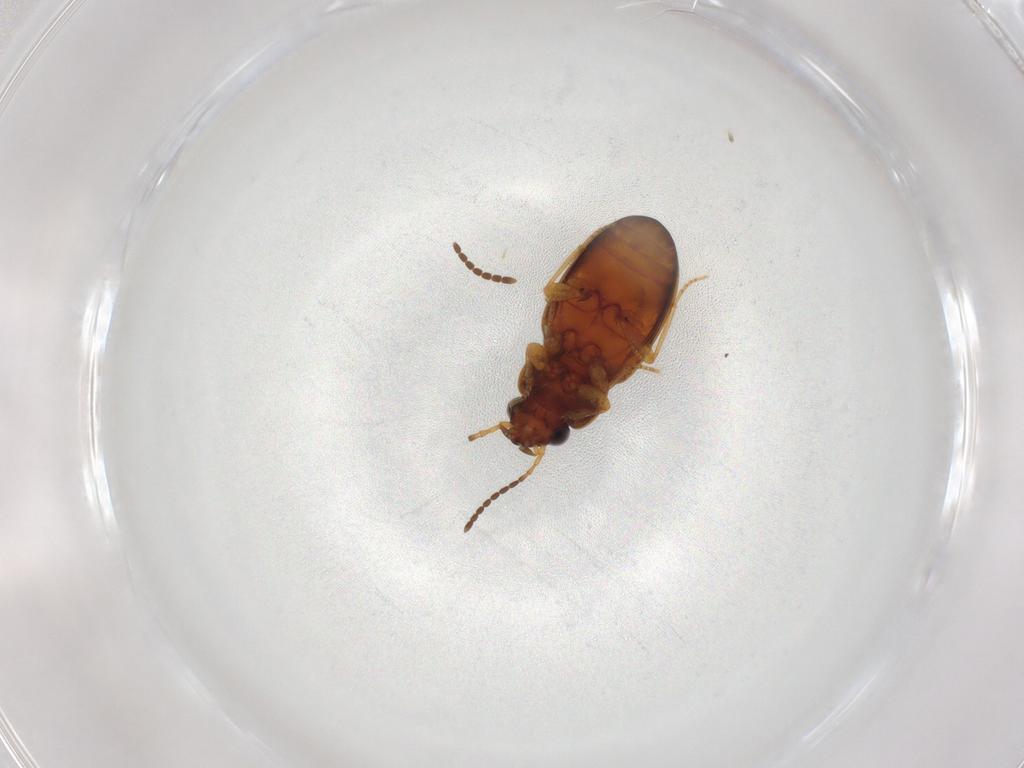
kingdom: Animalia
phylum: Arthropoda
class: Insecta
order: Coleoptera
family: Carabidae
